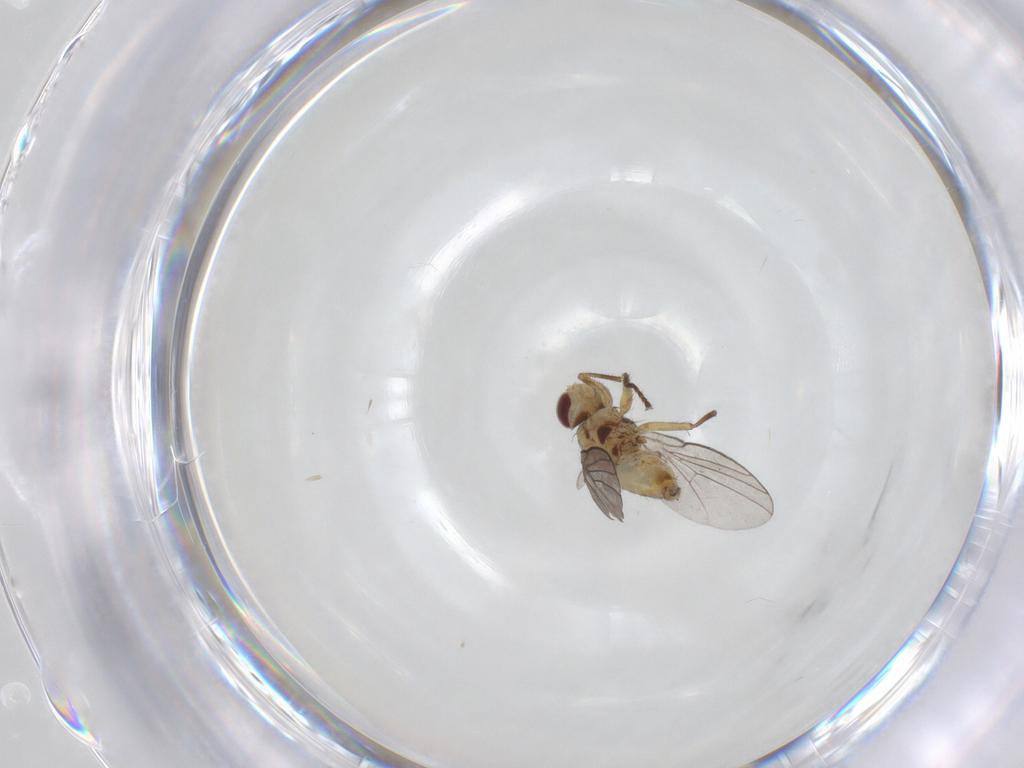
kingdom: Animalia
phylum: Arthropoda
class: Insecta
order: Diptera
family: Agromyzidae
